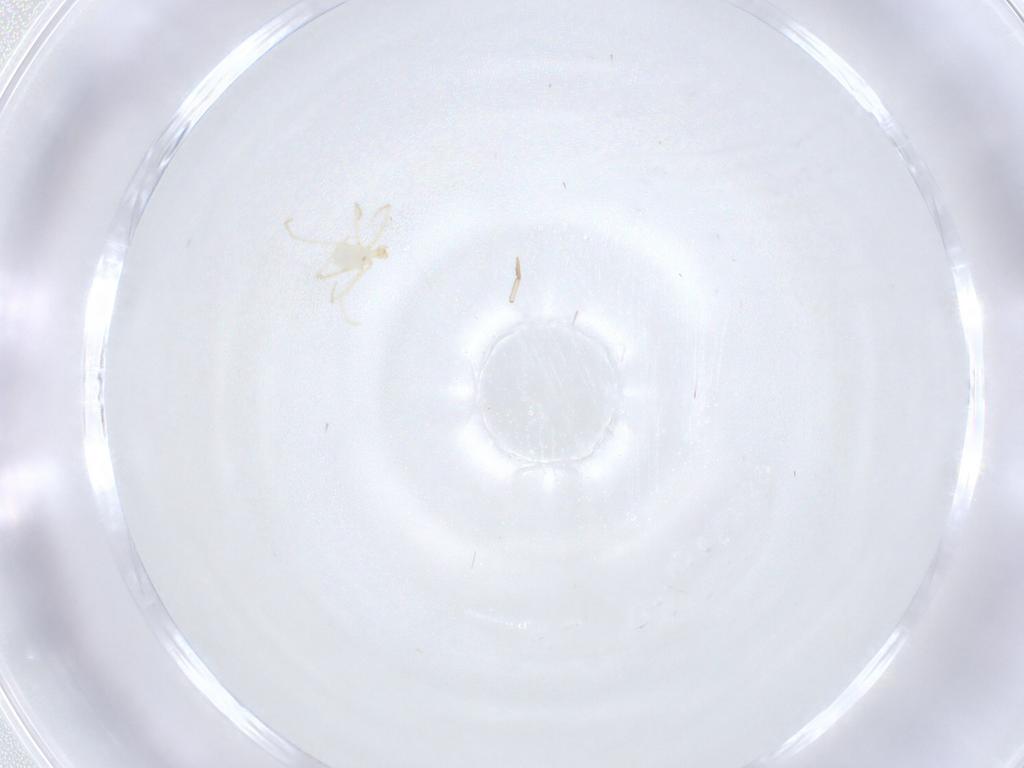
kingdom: Animalia
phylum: Arthropoda
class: Arachnida
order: Trombidiformes
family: Erythraeidae
